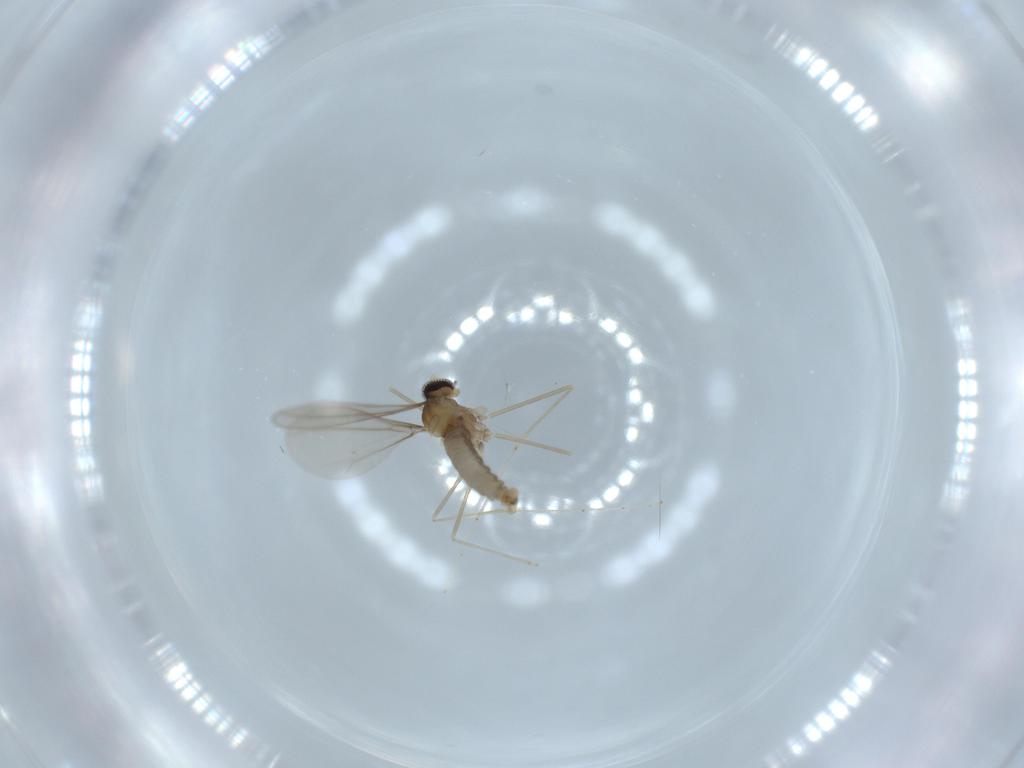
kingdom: Animalia
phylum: Arthropoda
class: Insecta
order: Diptera
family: Cecidomyiidae
